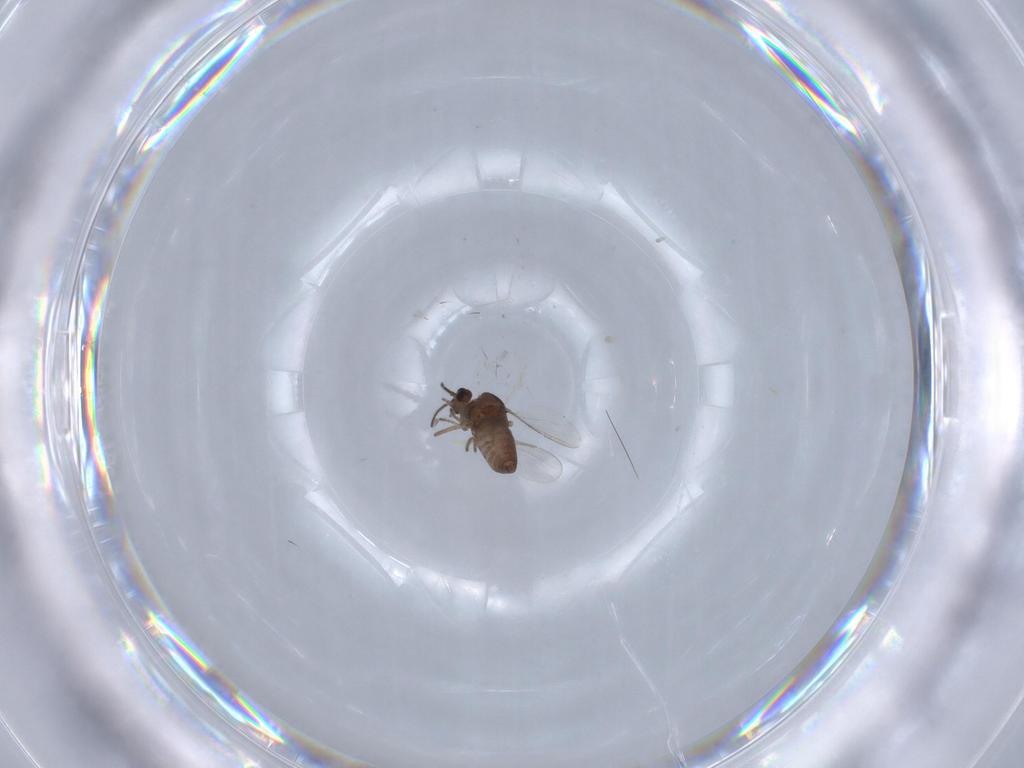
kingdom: Animalia
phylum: Arthropoda
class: Insecta
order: Diptera
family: Ceratopogonidae
